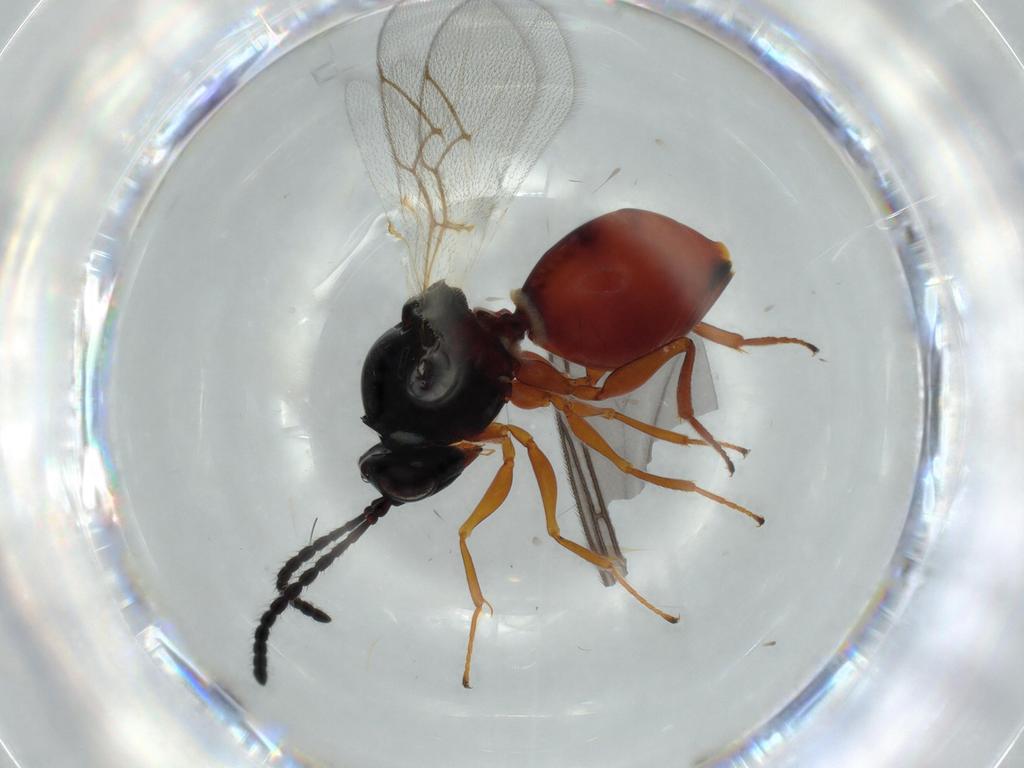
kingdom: Animalia
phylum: Arthropoda
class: Insecta
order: Hymenoptera
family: Figitidae
